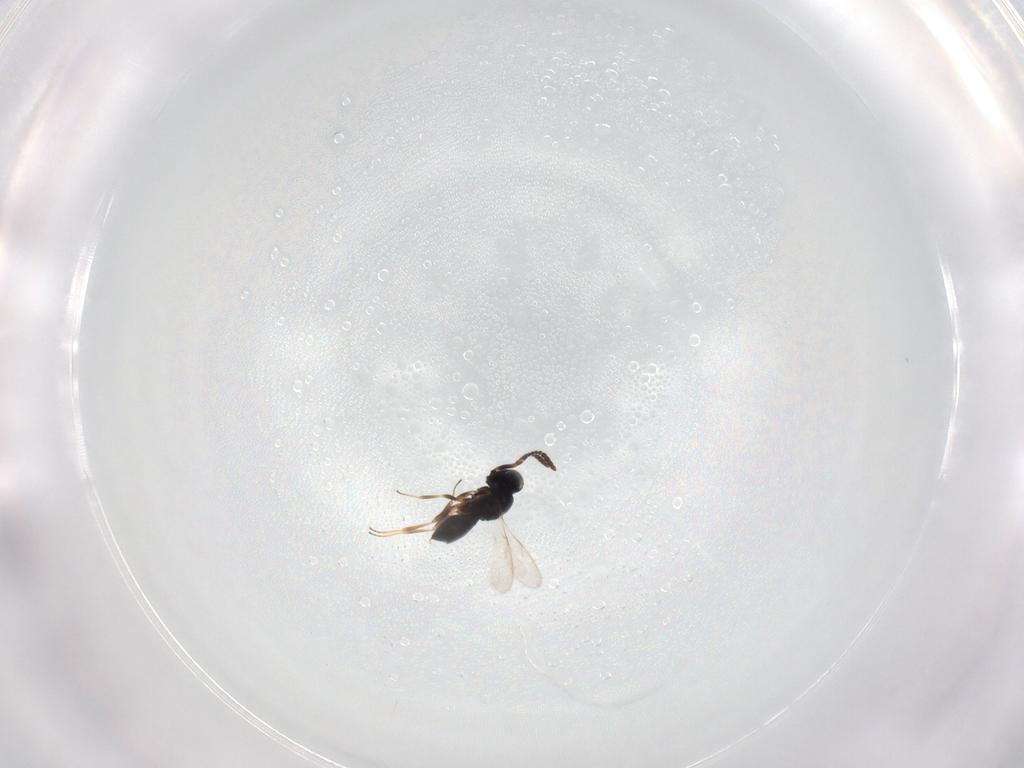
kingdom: Animalia
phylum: Arthropoda
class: Insecta
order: Hymenoptera
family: Scelionidae
